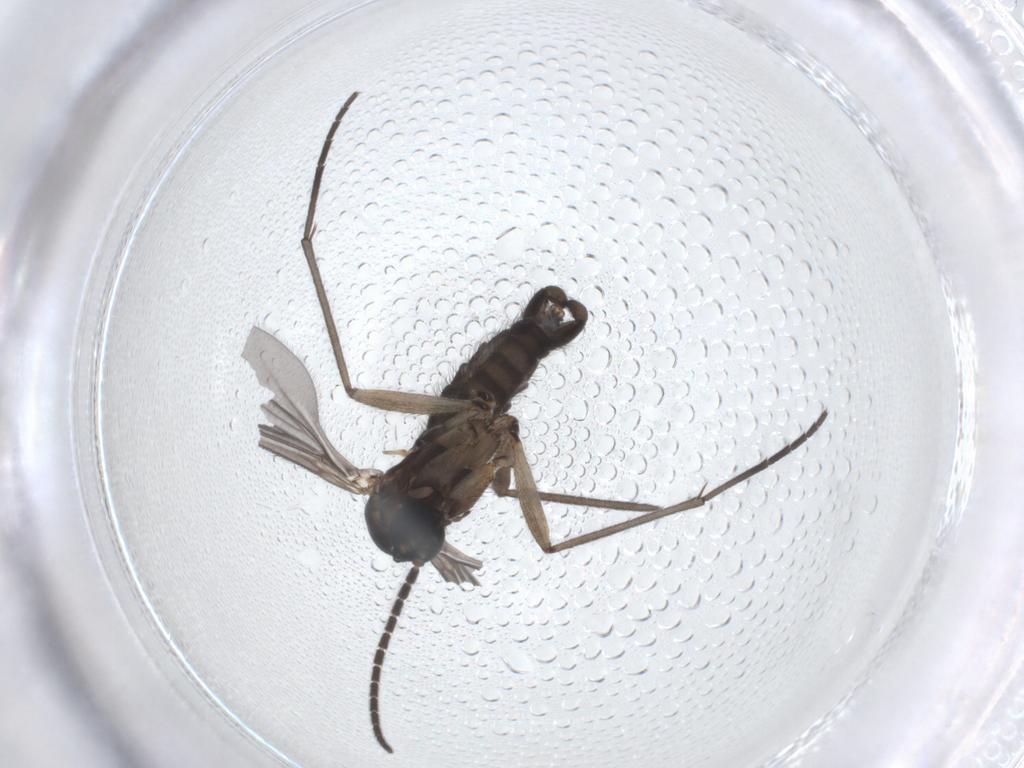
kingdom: Animalia
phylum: Arthropoda
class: Insecta
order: Diptera
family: Sciaridae
